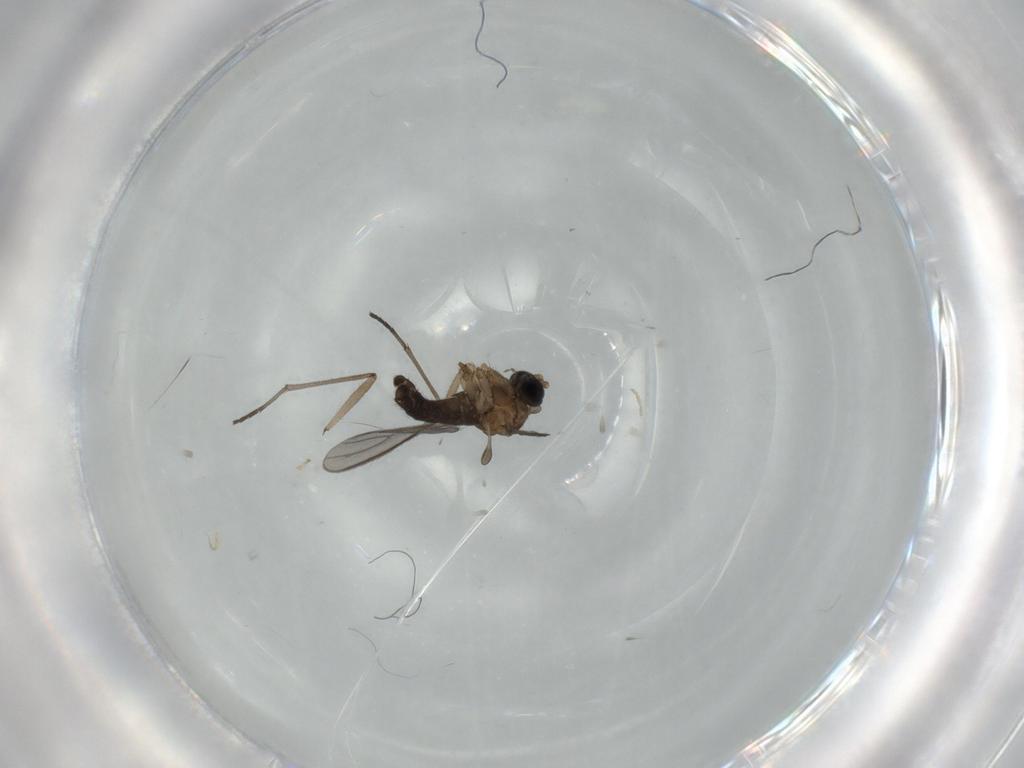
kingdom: Animalia
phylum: Arthropoda
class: Insecta
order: Diptera
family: Sciaridae
